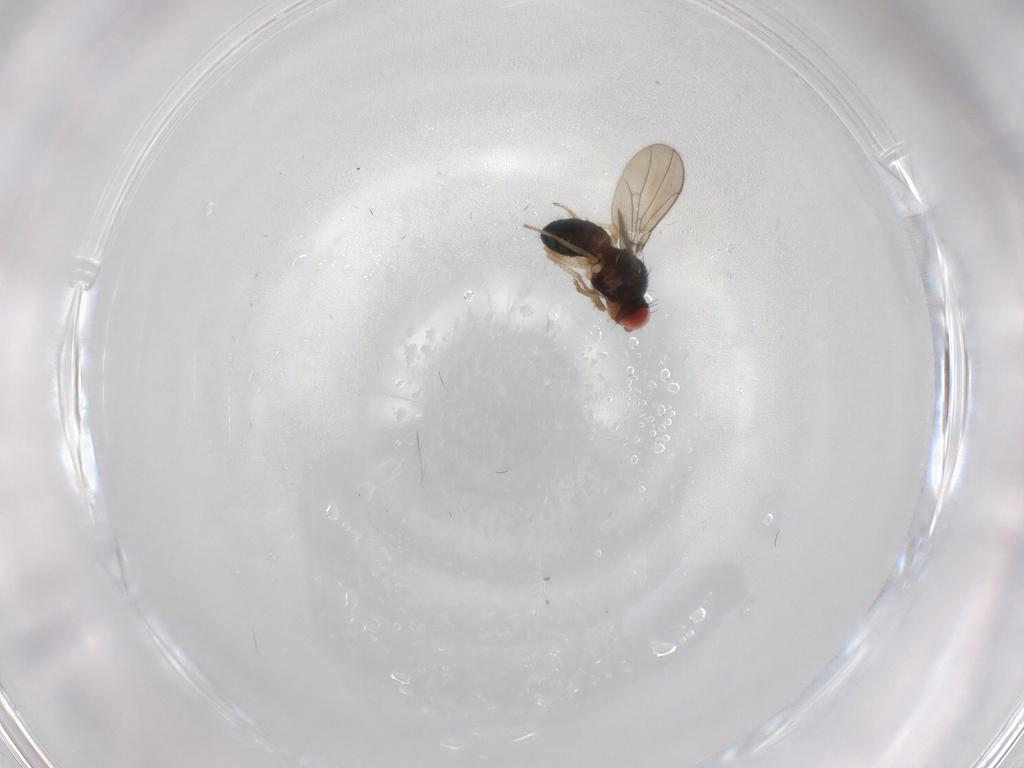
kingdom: Animalia
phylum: Arthropoda
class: Insecta
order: Diptera
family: Drosophilidae
